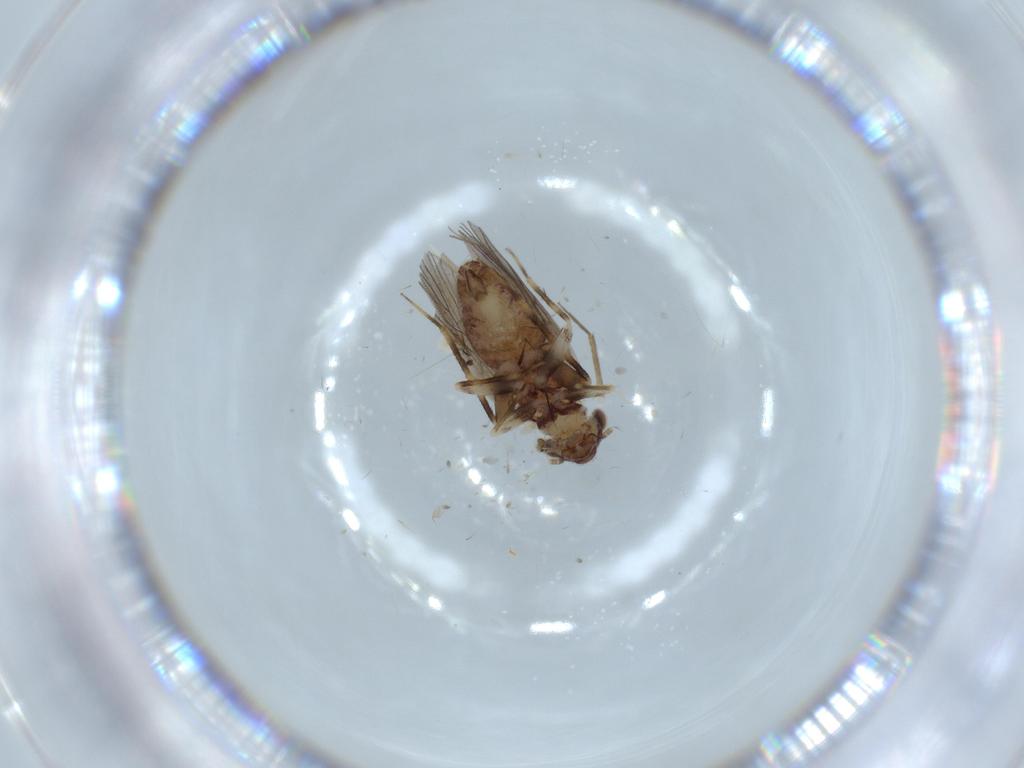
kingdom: Animalia
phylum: Arthropoda
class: Insecta
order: Psocodea
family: Lepidopsocidae
